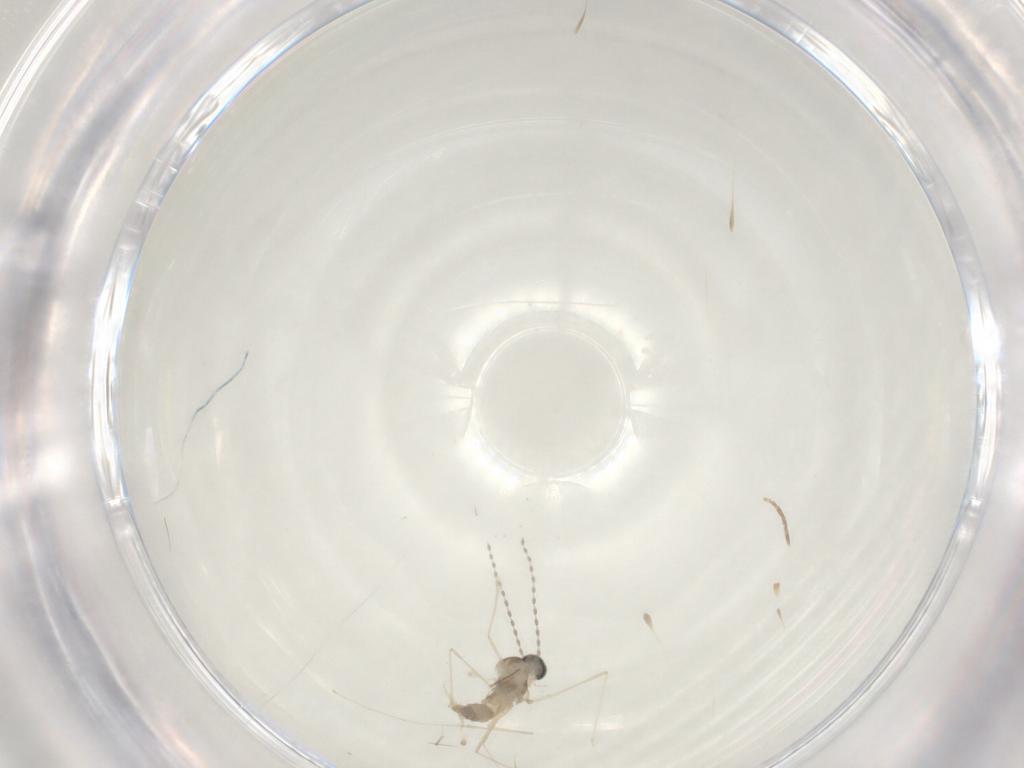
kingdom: Animalia
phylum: Arthropoda
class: Insecta
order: Diptera
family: Cecidomyiidae
